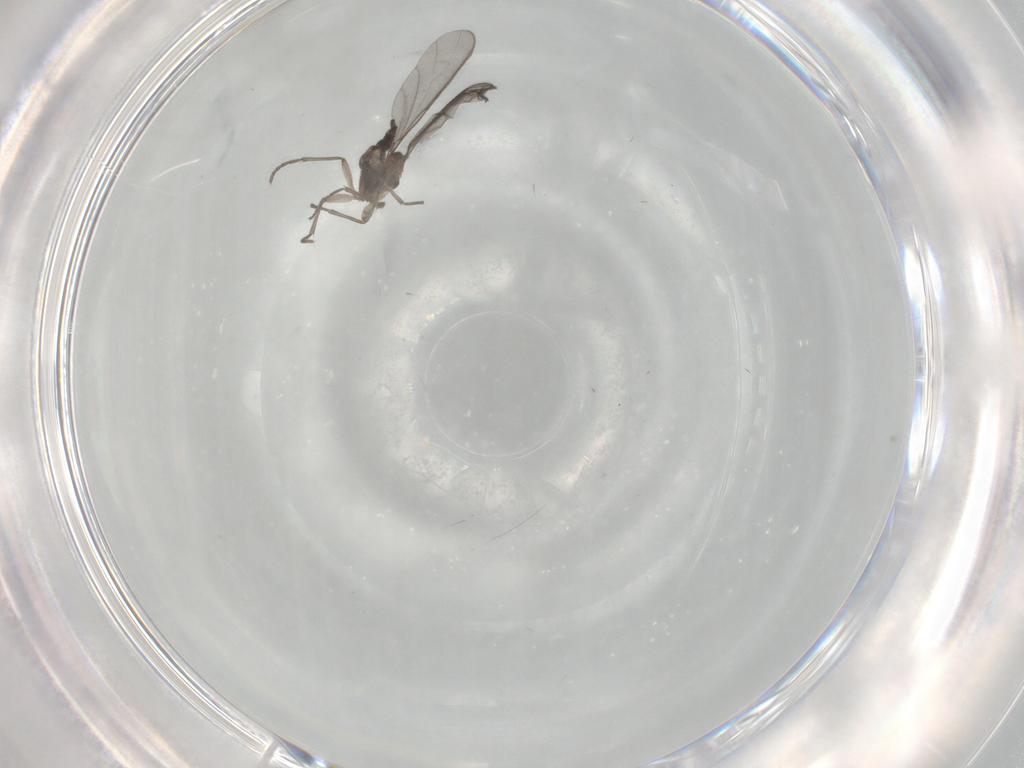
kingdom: Animalia
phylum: Arthropoda
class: Insecta
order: Diptera
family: Sciaridae
